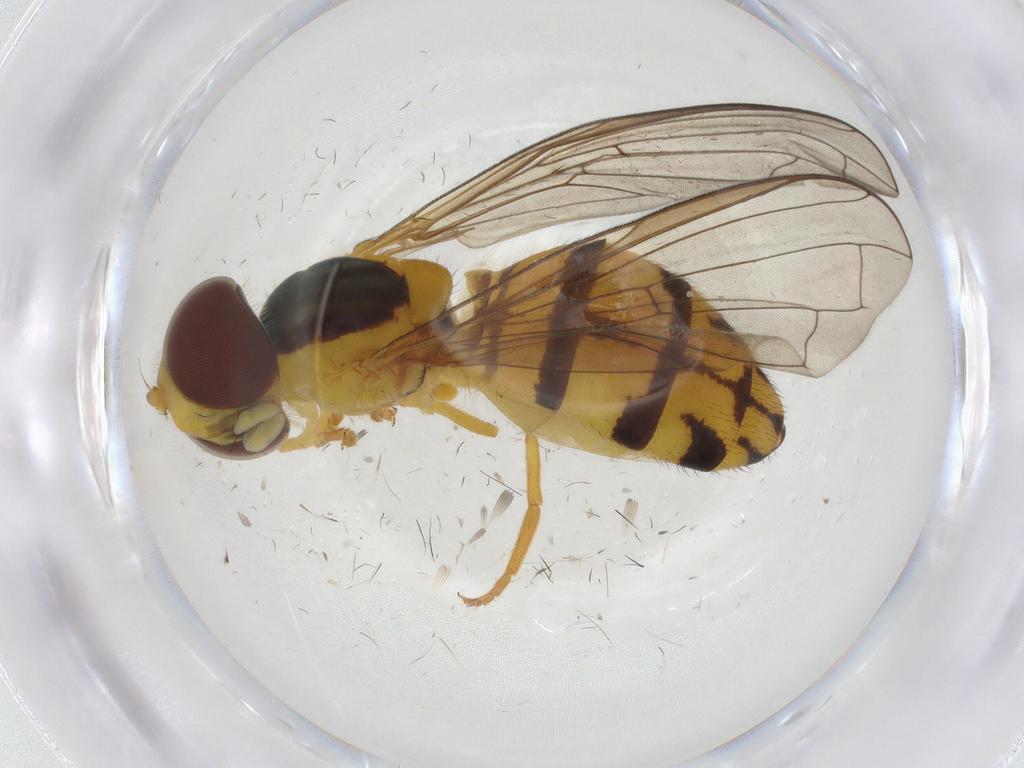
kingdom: Animalia
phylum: Arthropoda
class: Insecta
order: Diptera
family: Syrphidae
